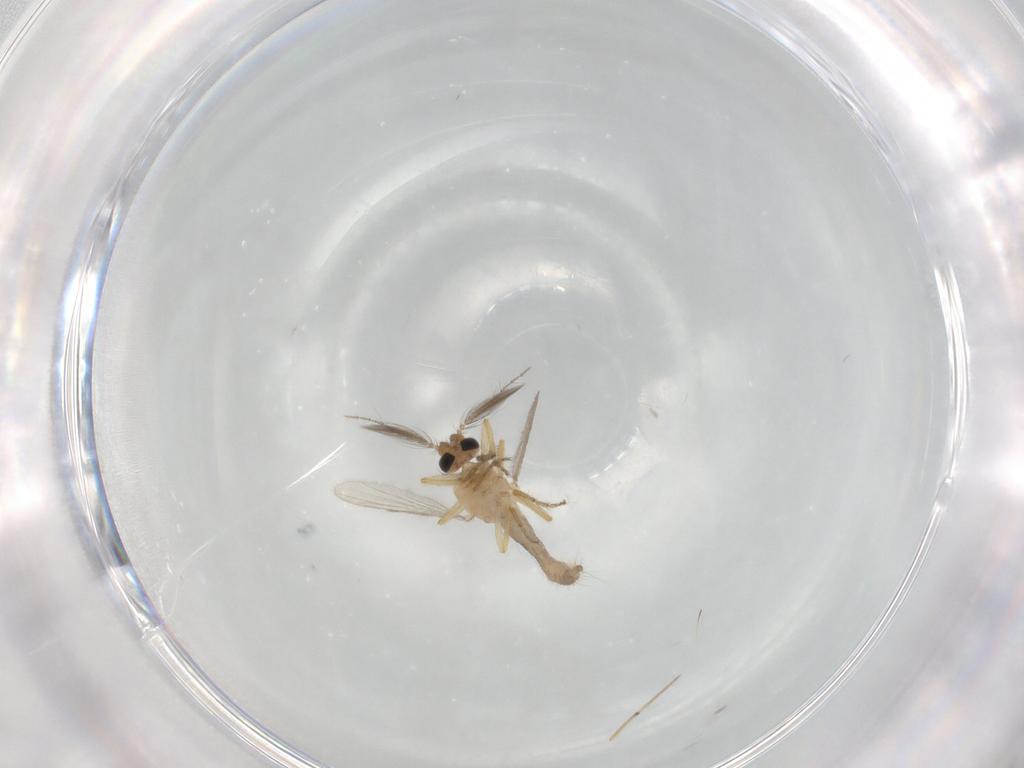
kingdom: Animalia
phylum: Arthropoda
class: Insecta
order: Diptera
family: Ceratopogonidae
